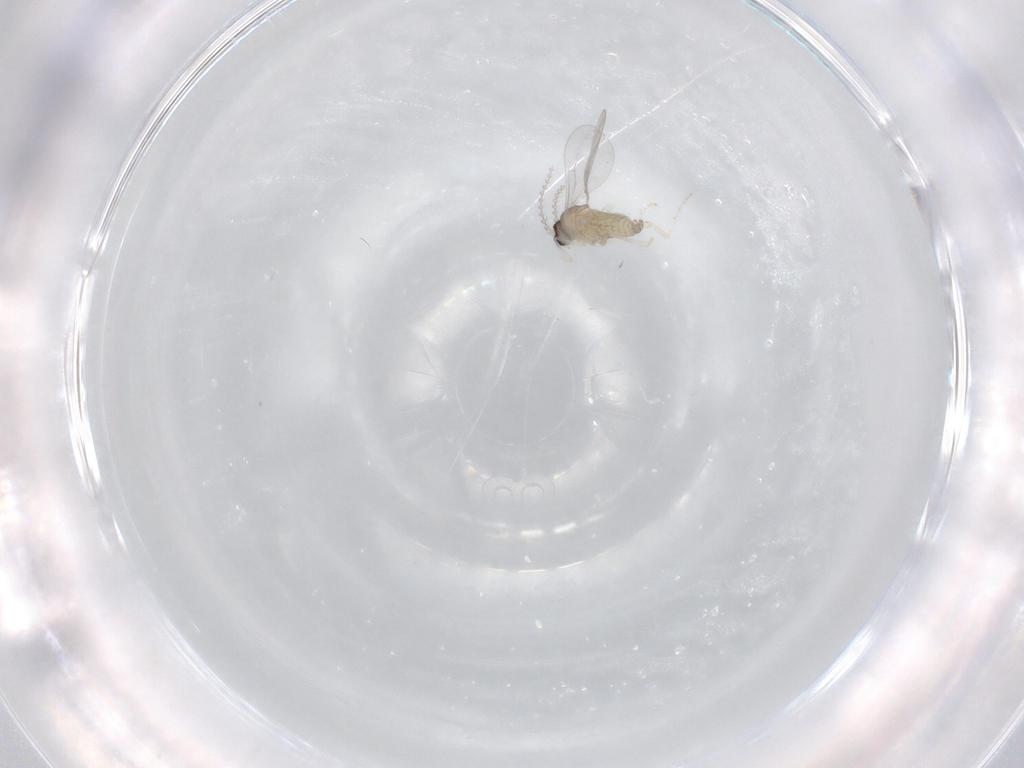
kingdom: Animalia
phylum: Arthropoda
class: Insecta
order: Diptera
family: Cecidomyiidae
